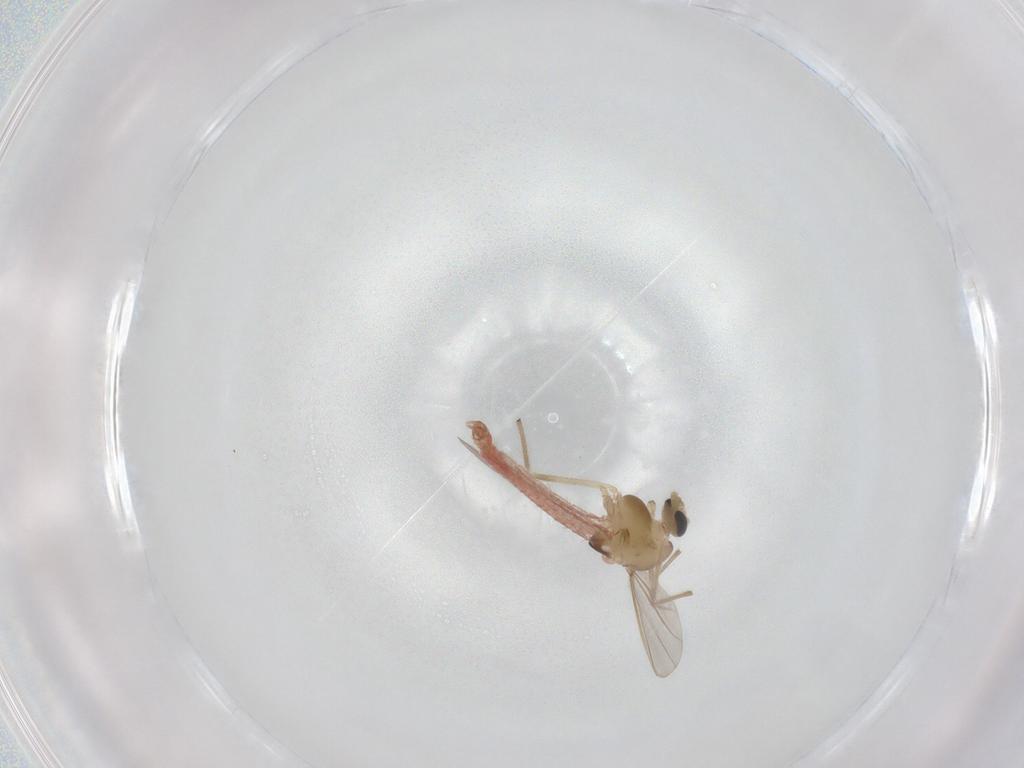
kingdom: Animalia
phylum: Arthropoda
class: Insecta
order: Diptera
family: Chironomidae
